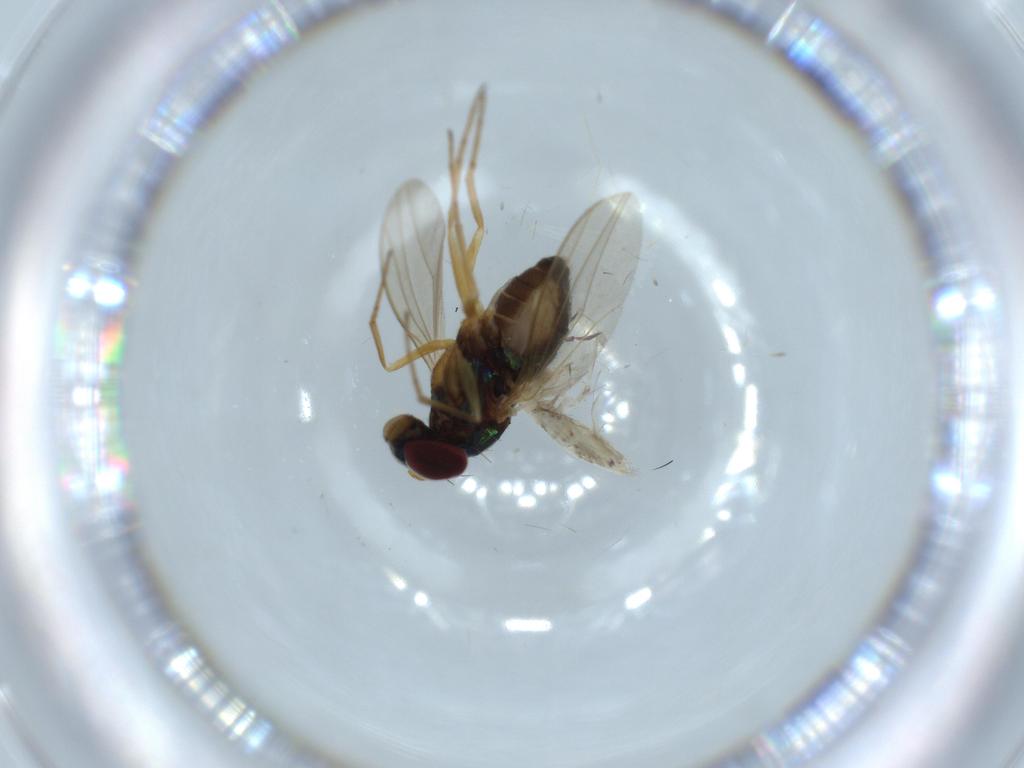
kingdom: Animalia
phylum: Arthropoda
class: Insecta
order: Diptera
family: Dolichopodidae
